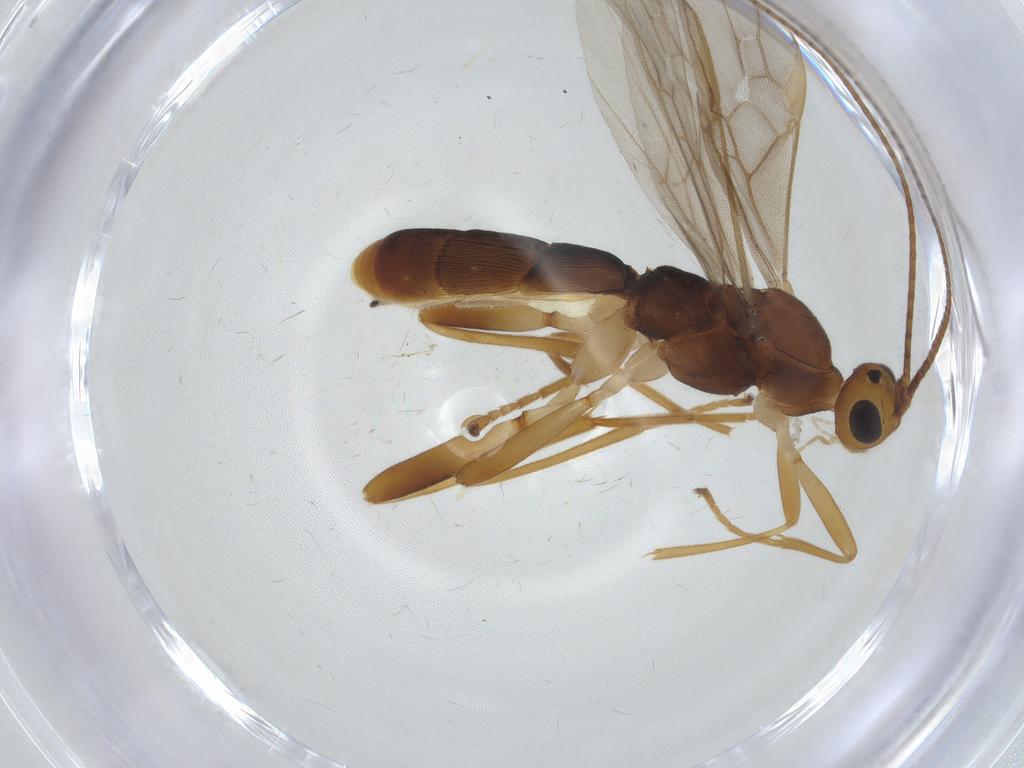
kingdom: Animalia
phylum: Arthropoda
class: Insecta
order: Hymenoptera
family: Braconidae
